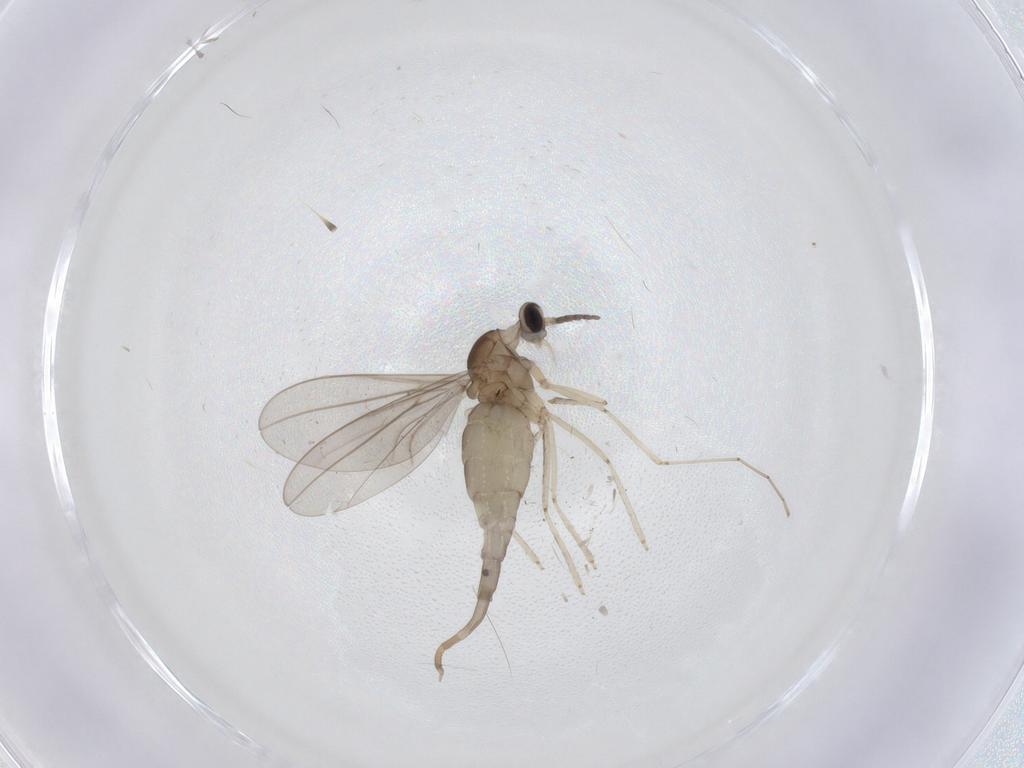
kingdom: Animalia
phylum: Arthropoda
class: Insecta
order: Diptera
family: Cecidomyiidae
